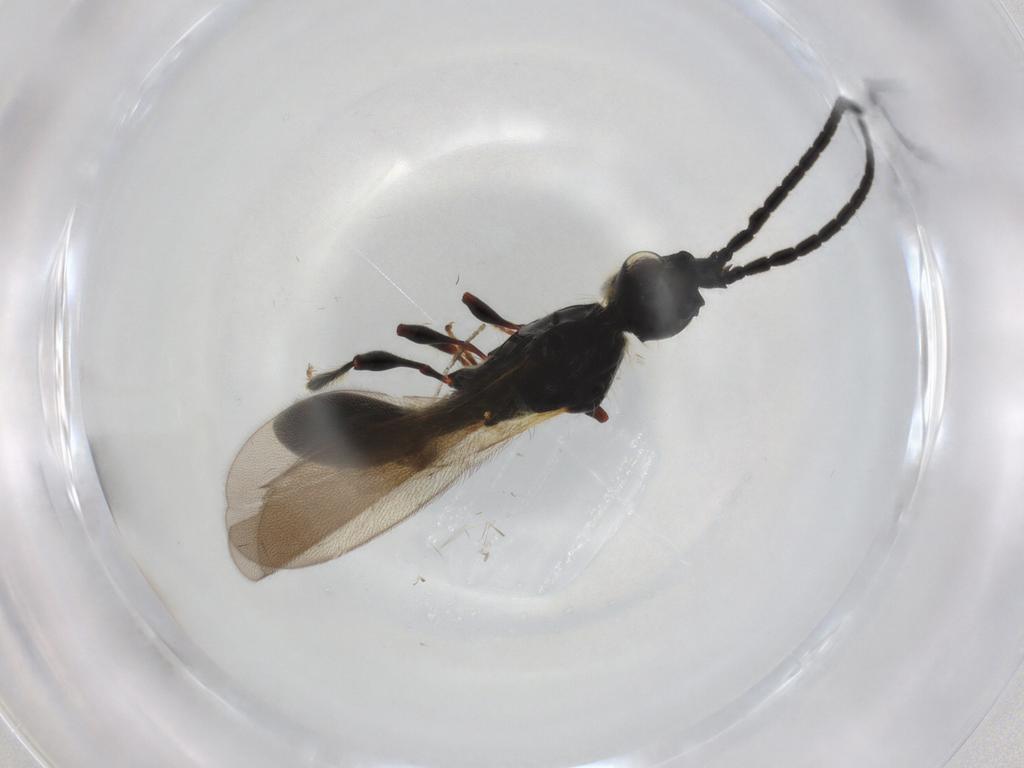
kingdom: Animalia
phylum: Arthropoda
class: Insecta
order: Hymenoptera
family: Diapriidae
